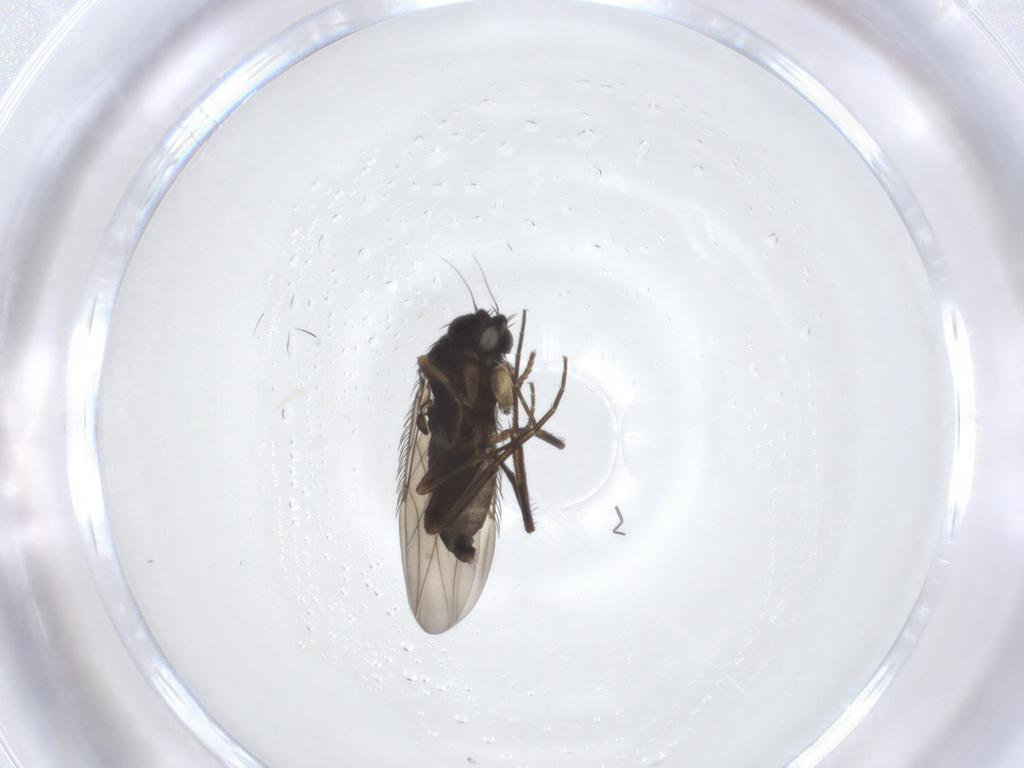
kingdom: Animalia
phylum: Arthropoda
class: Insecta
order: Diptera
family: Phoridae
